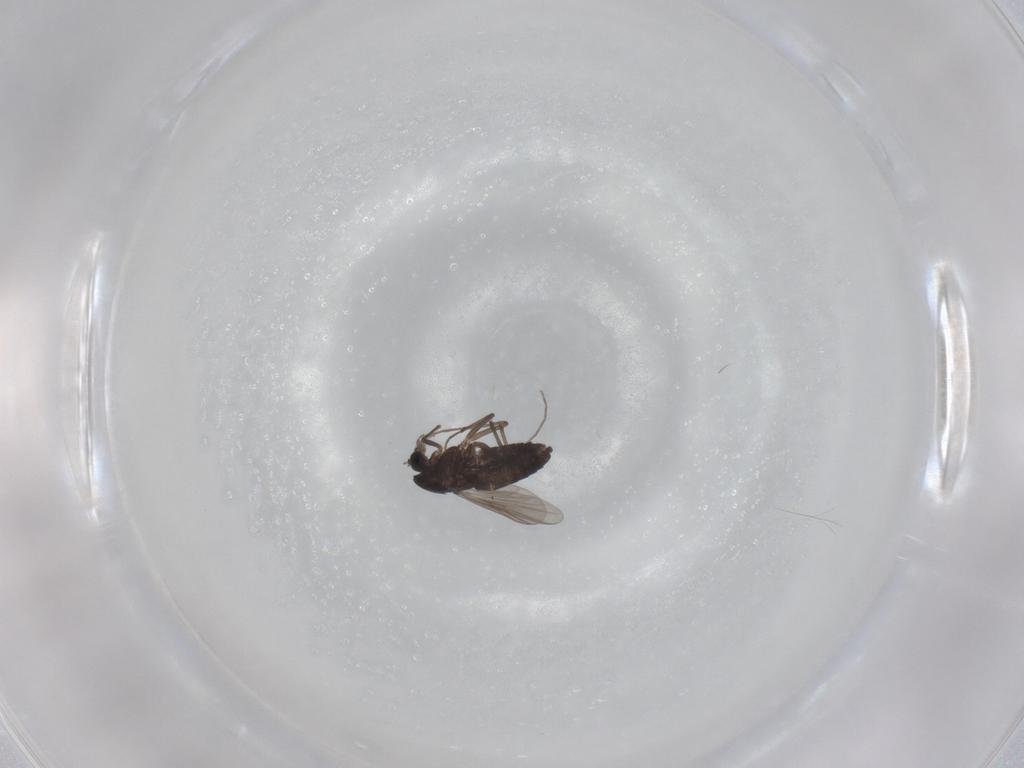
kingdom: Animalia
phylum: Arthropoda
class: Insecta
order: Diptera
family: Chironomidae
